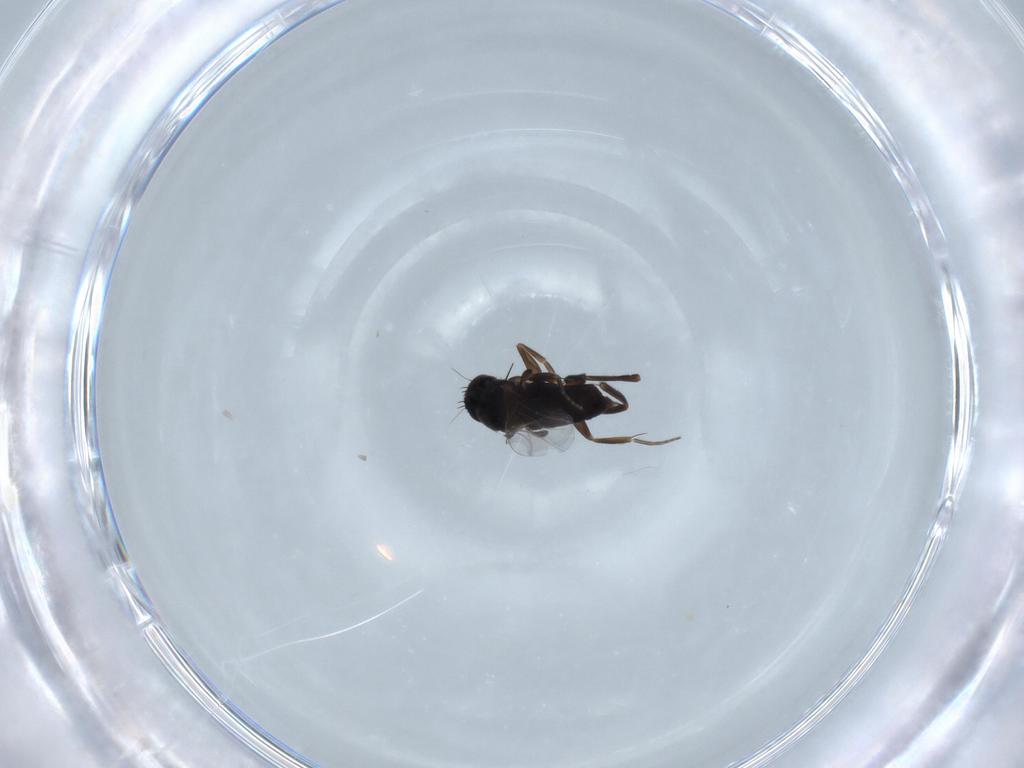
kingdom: Animalia
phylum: Arthropoda
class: Insecta
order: Diptera
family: Phoridae
